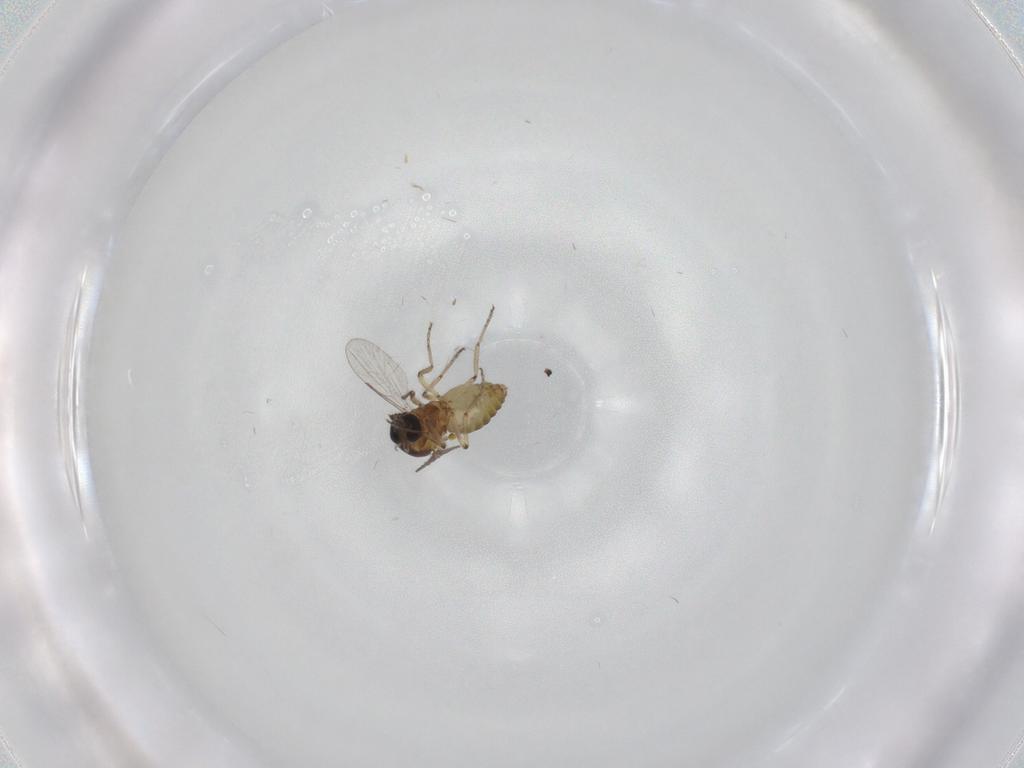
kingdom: Animalia
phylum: Arthropoda
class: Insecta
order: Diptera
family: Ceratopogonidae
